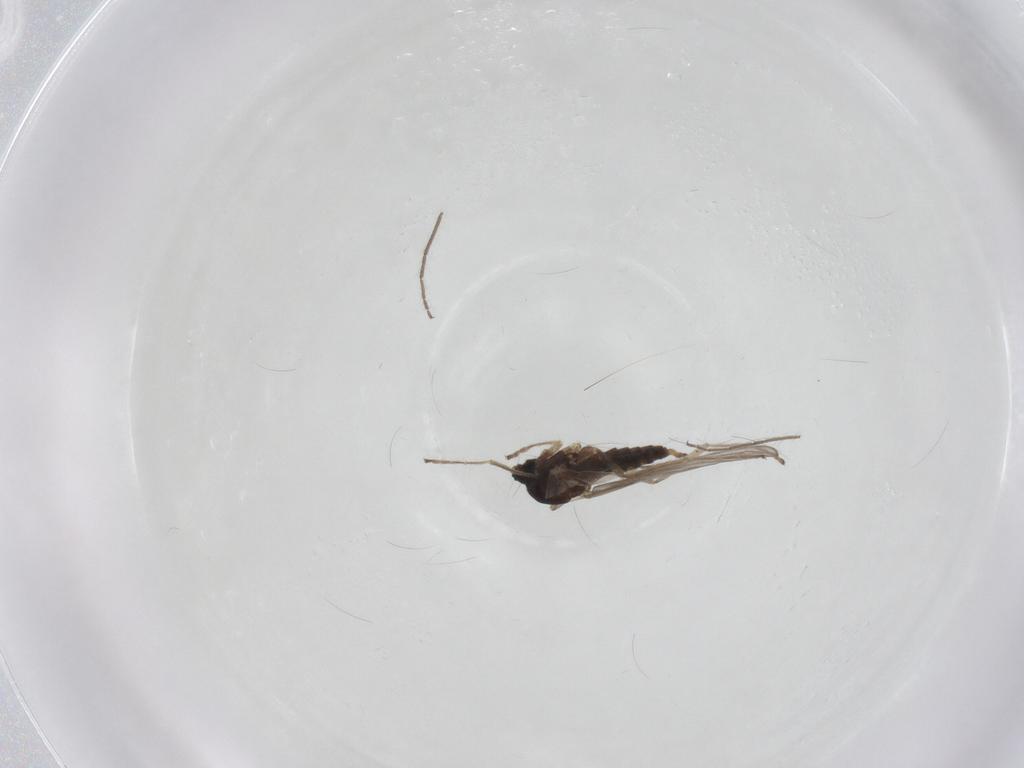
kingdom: Animalia
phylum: Arthropoda
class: Insecta
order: Diptera
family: Cecidomyiidae
